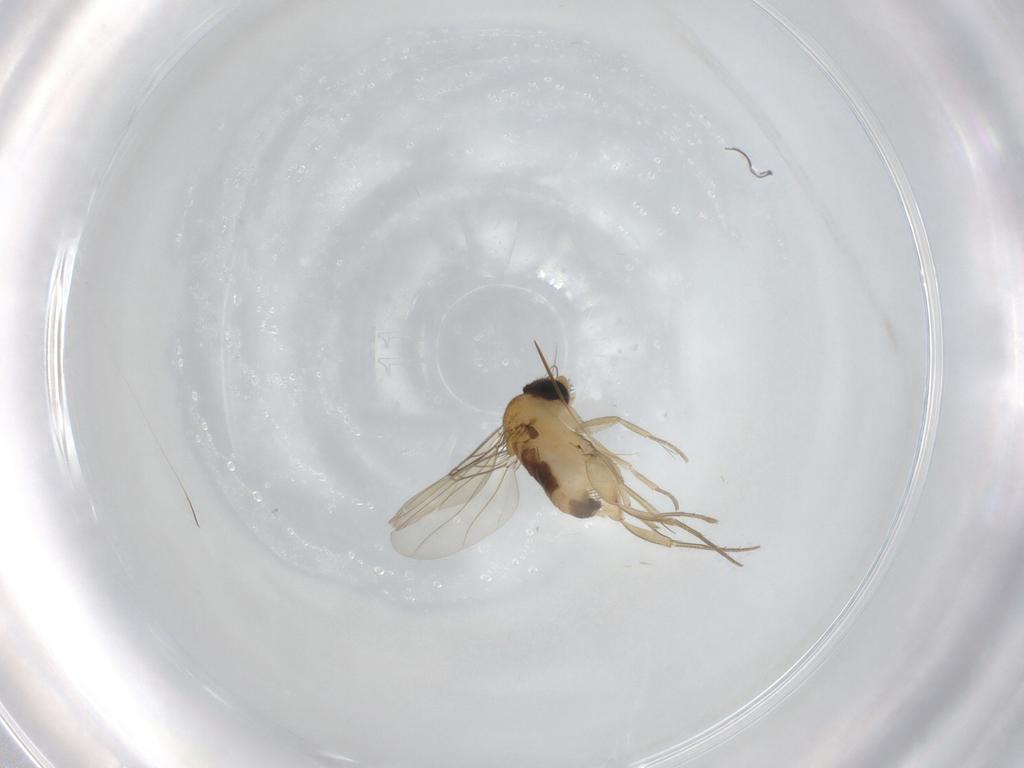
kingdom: Animalia
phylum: Arthropoda
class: Insecta
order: Diptera
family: Phoridae
